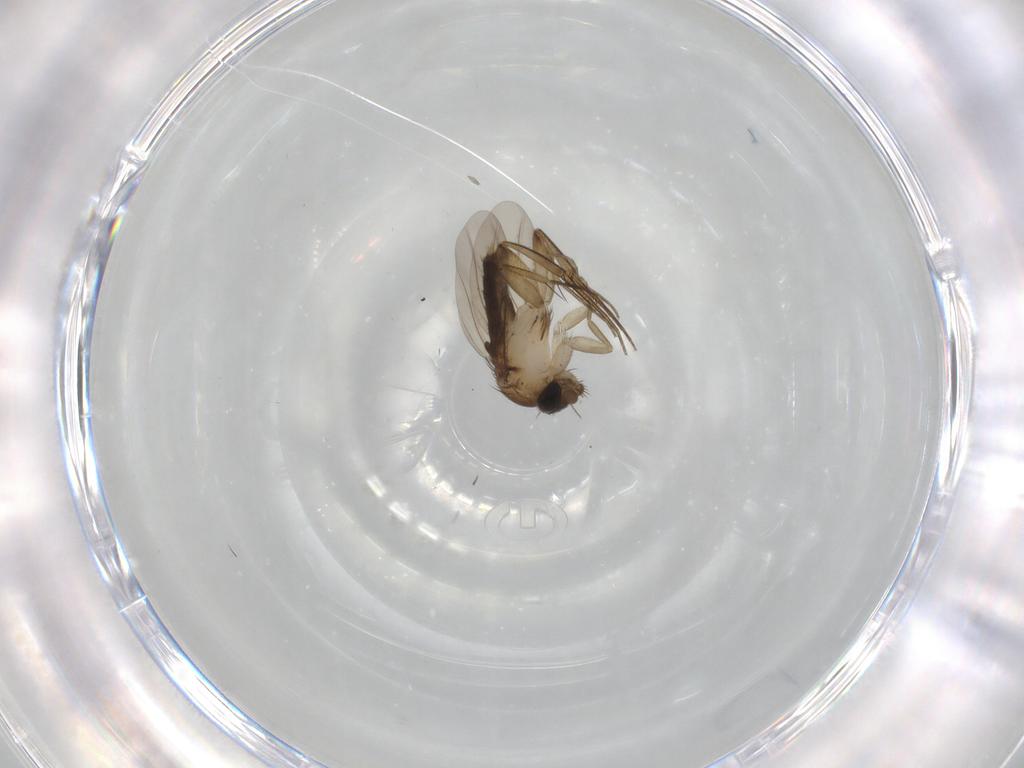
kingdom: Animalia
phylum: Arthropoda
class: Insecta
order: Diptera
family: Phoridae
